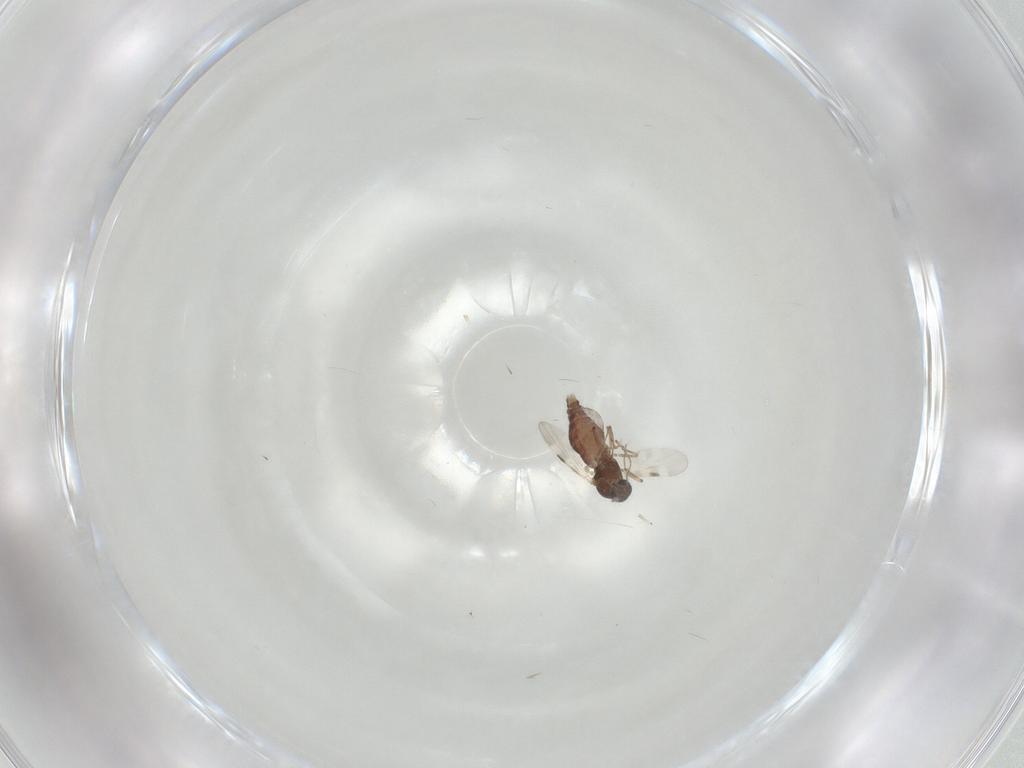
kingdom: Animalia
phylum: Arthropoda
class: Insecta
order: Diptera
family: Ceratopogonidae
